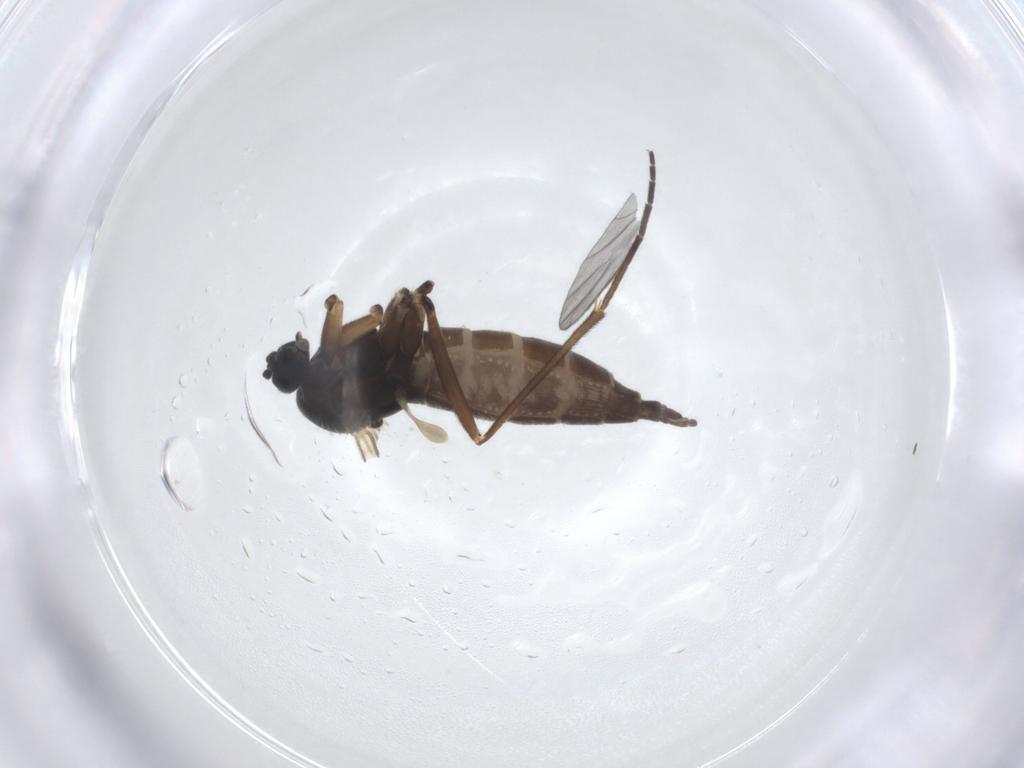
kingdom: Animalia
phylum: Arthropoda
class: Insecta
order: Diptera
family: Sciaridae
